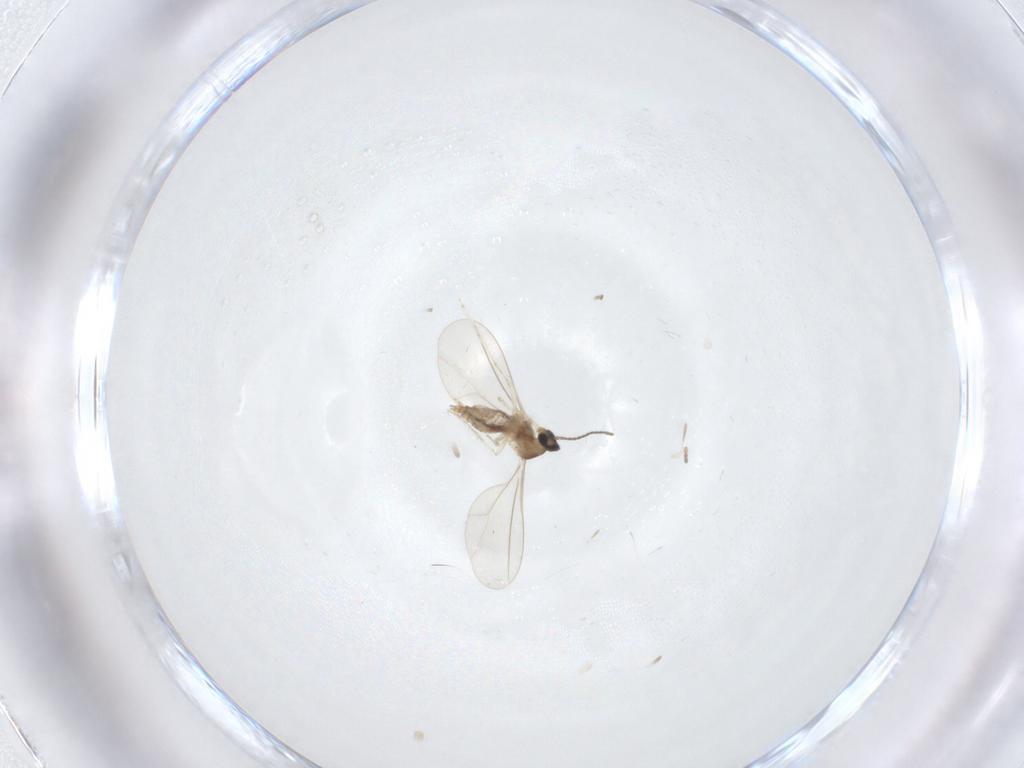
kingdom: Animalia
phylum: Arthropoda
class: Insecta
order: Diptera
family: Cecidomyiidae
